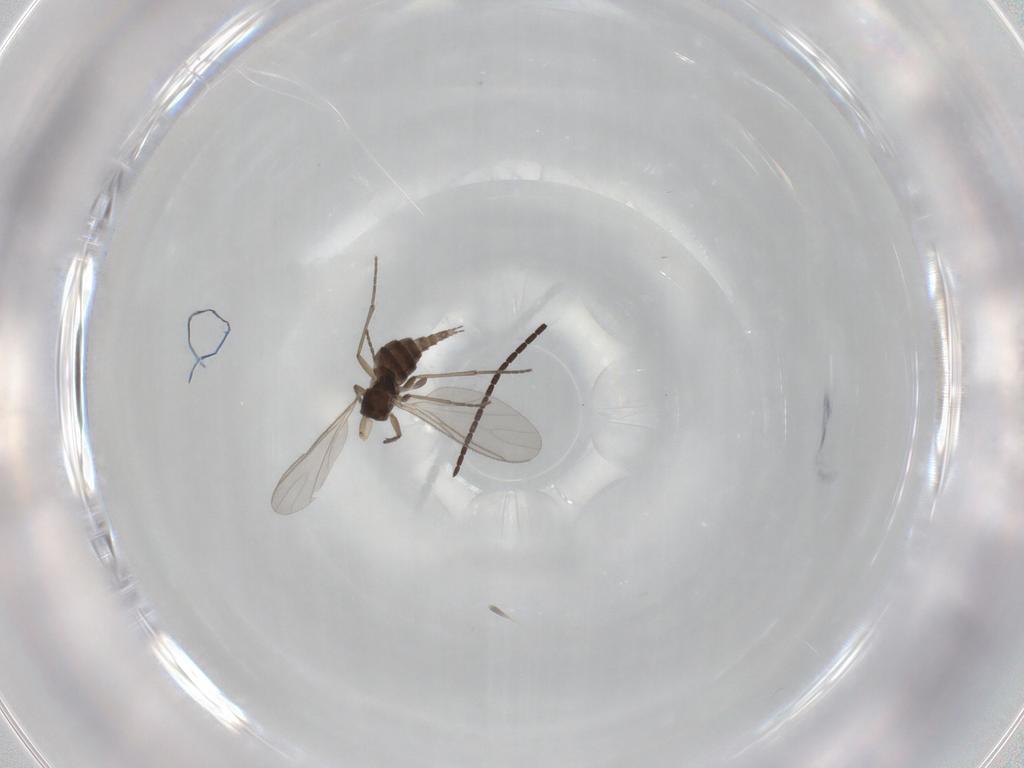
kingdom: Animalia
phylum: Arthropoda
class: Insecta
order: Diptera
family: Sciaridae
